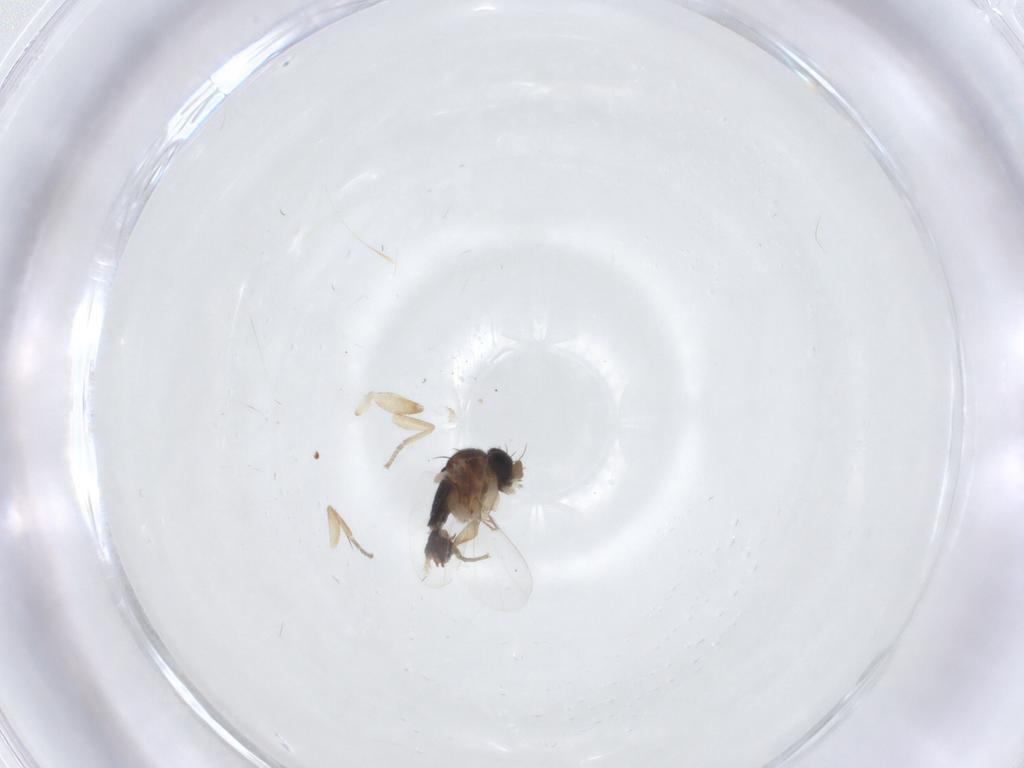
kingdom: Animalia
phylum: Arthropoda
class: Insecta
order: Diptera
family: Phoridae
